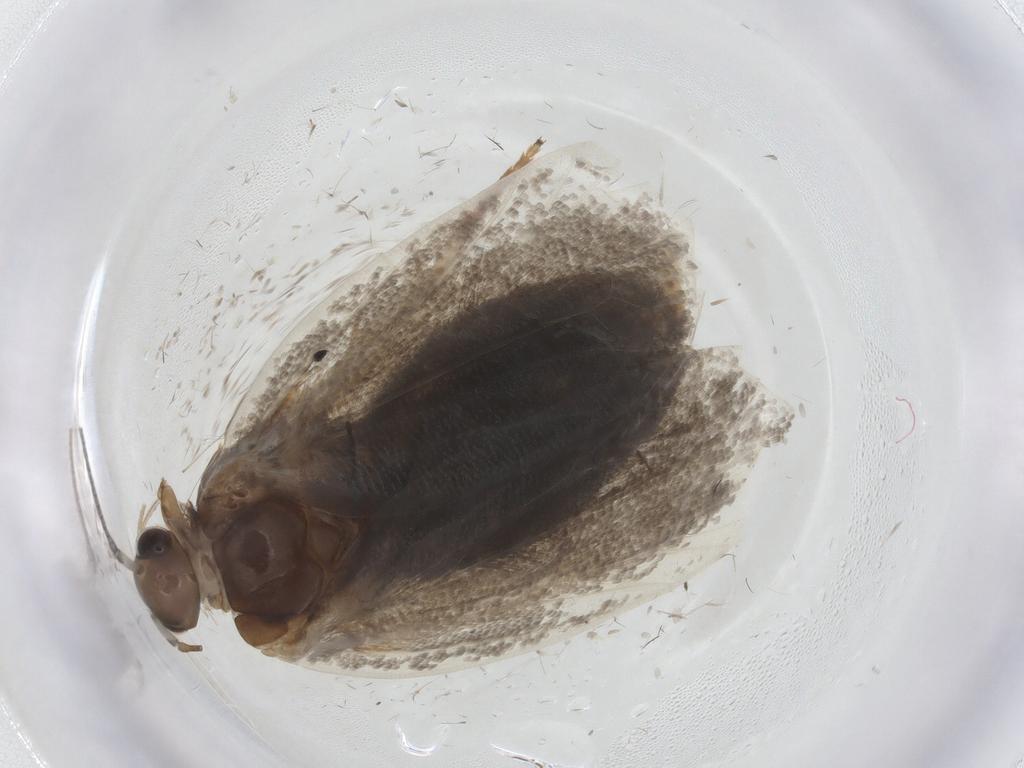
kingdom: Animalia
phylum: Arthropoda
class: Insecta
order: Lepidoptera
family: Oecophoridae
